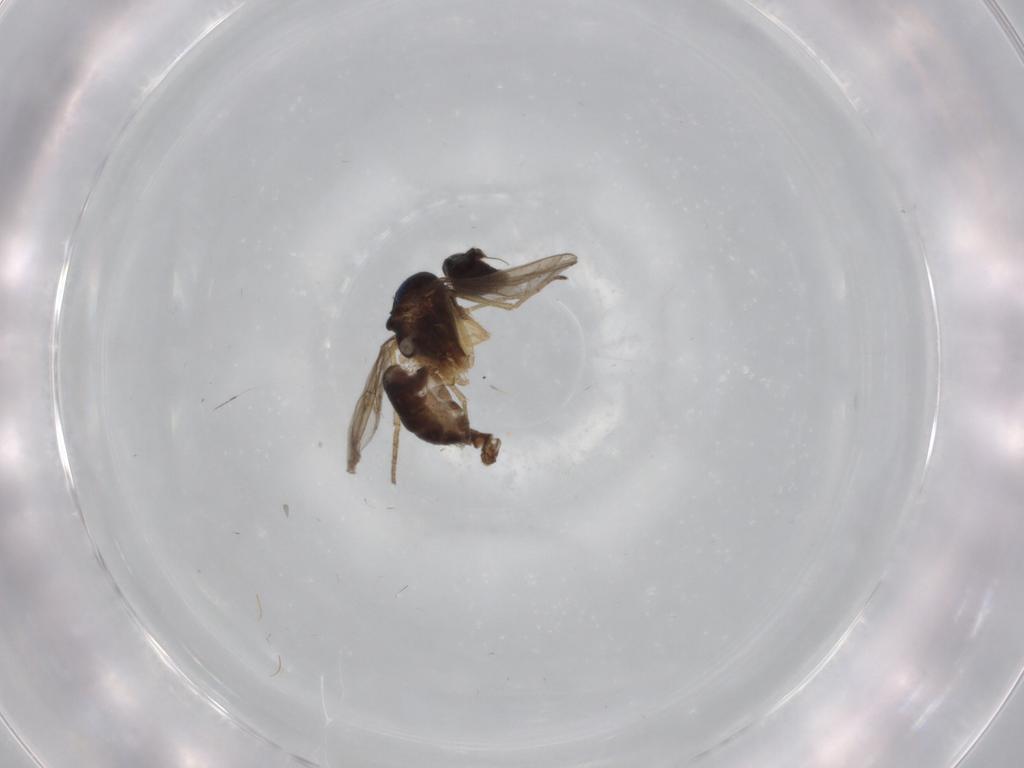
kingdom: Animalia
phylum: Arthropoda
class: Insecta
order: Diptera
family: Dolichopodidae
